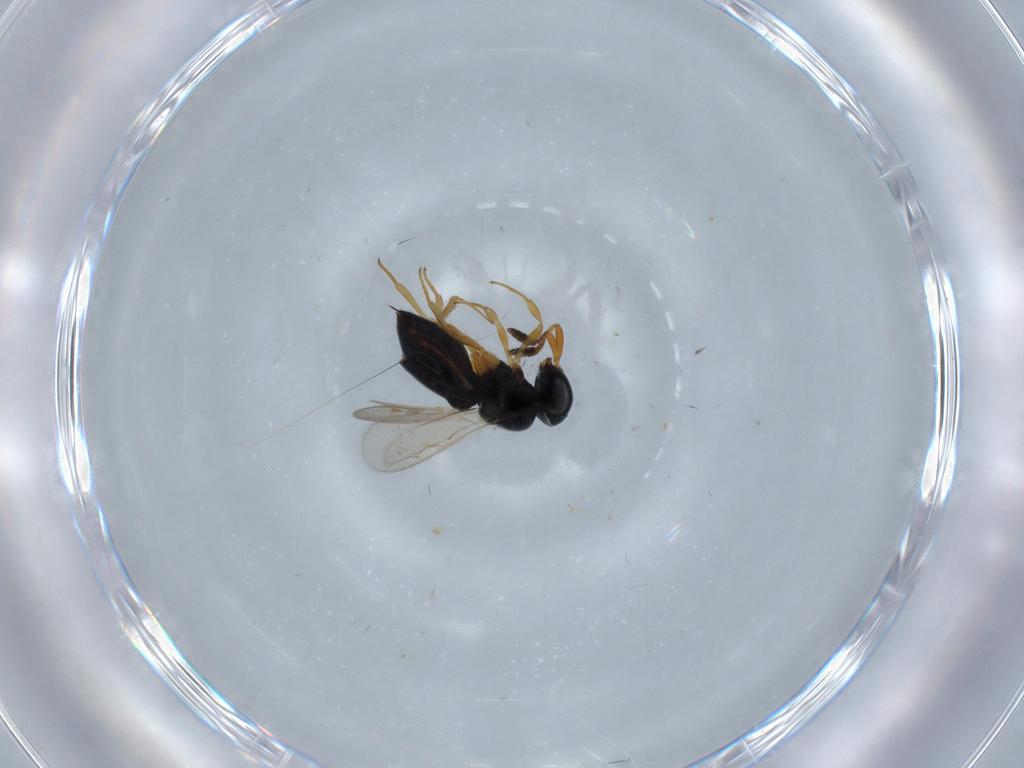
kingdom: Animalia
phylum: Arthropoda
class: Insecta
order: Hymenoptera
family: Scelionidae
